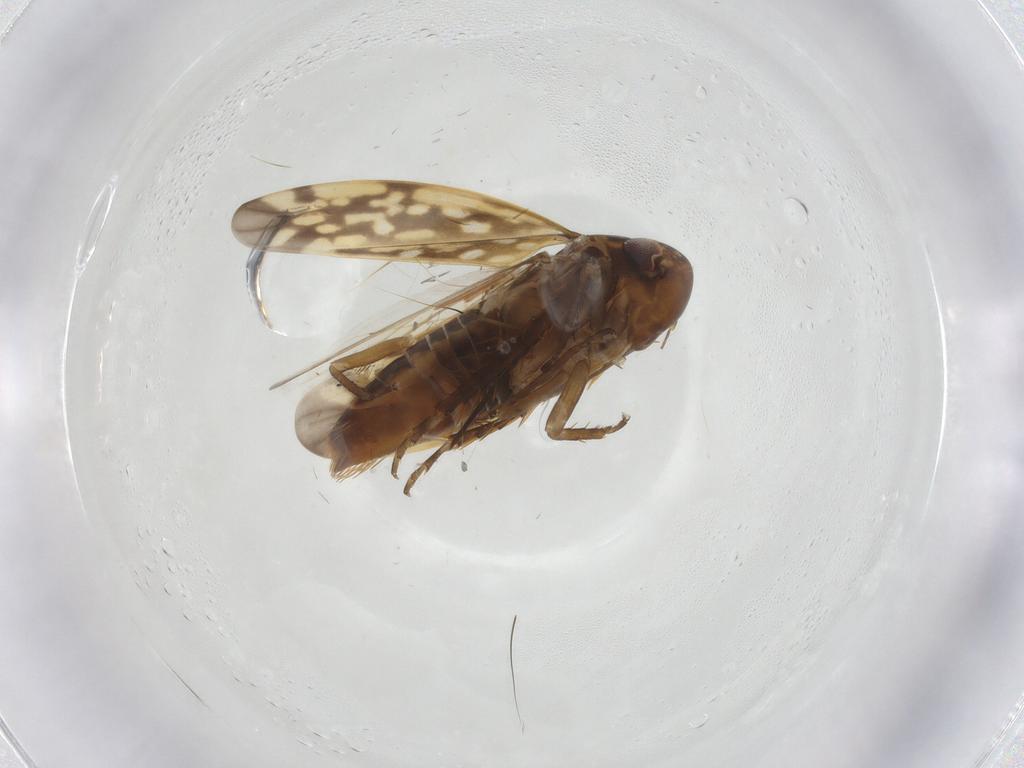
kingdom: Animalia
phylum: Arthropoda
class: Insecta
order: Hemiptera
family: Cicadellidae
